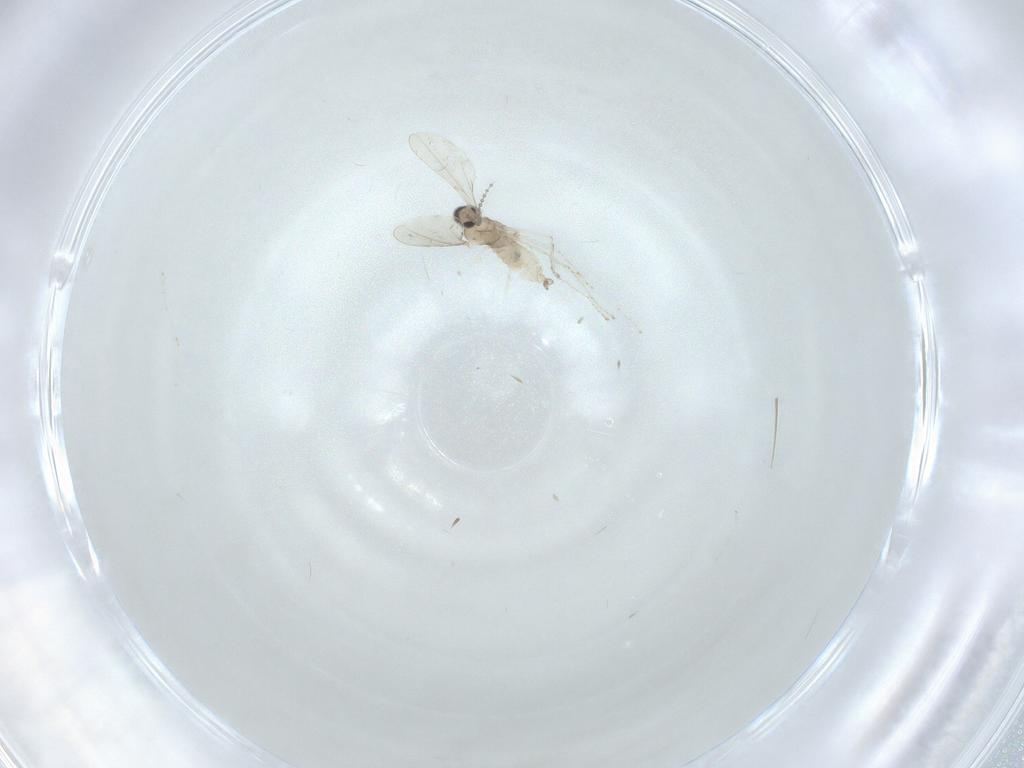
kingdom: Animalia
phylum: Arthropoda
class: Insecta
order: Diptera
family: Cecidomyiidae
